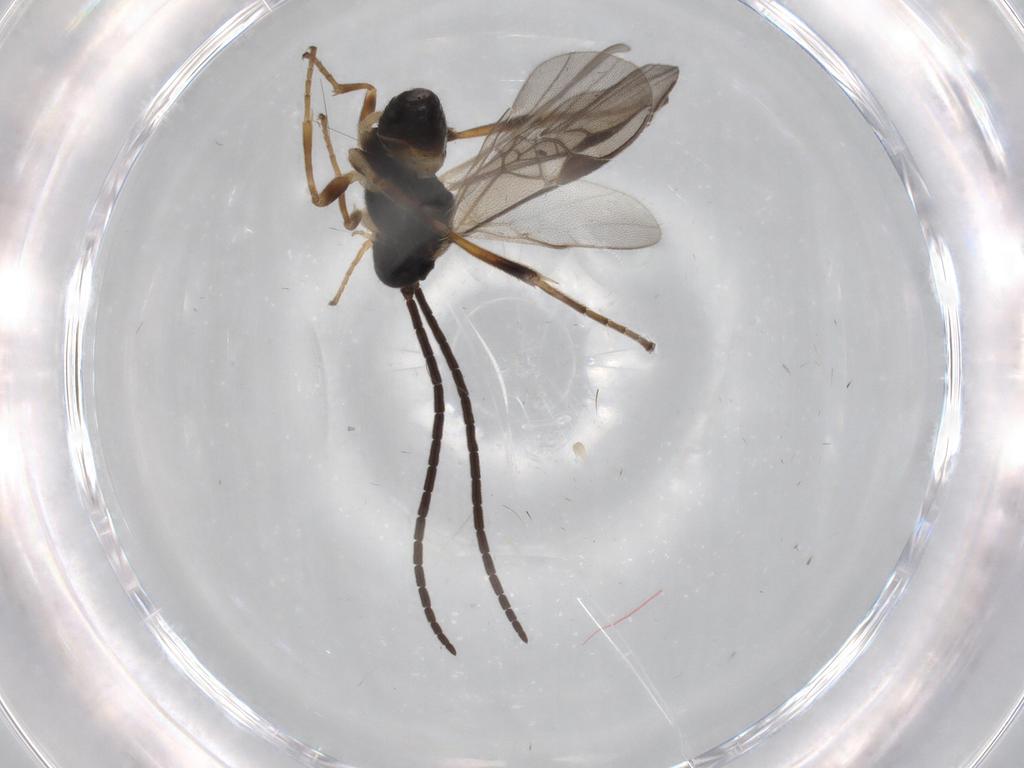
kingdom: Animalia
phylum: Arthropoda
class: Insecta
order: Hymenoptera
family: Braconidae
